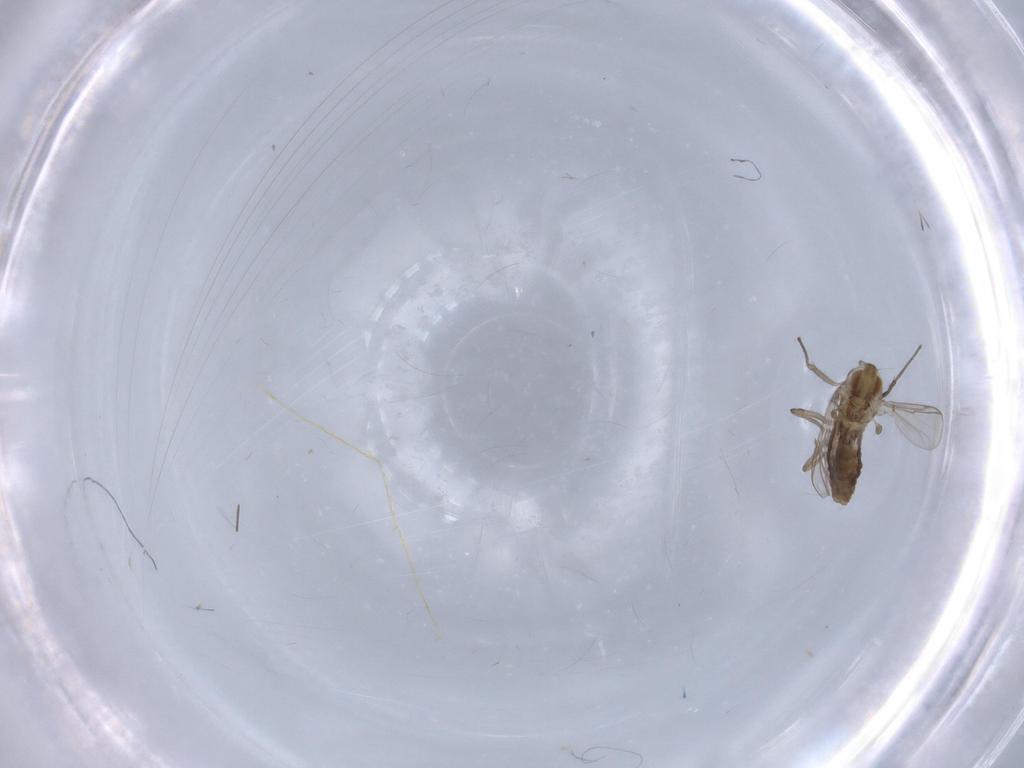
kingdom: Animalia
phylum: Arthropoda
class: Insecta
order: Diptera
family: Chironomidae
